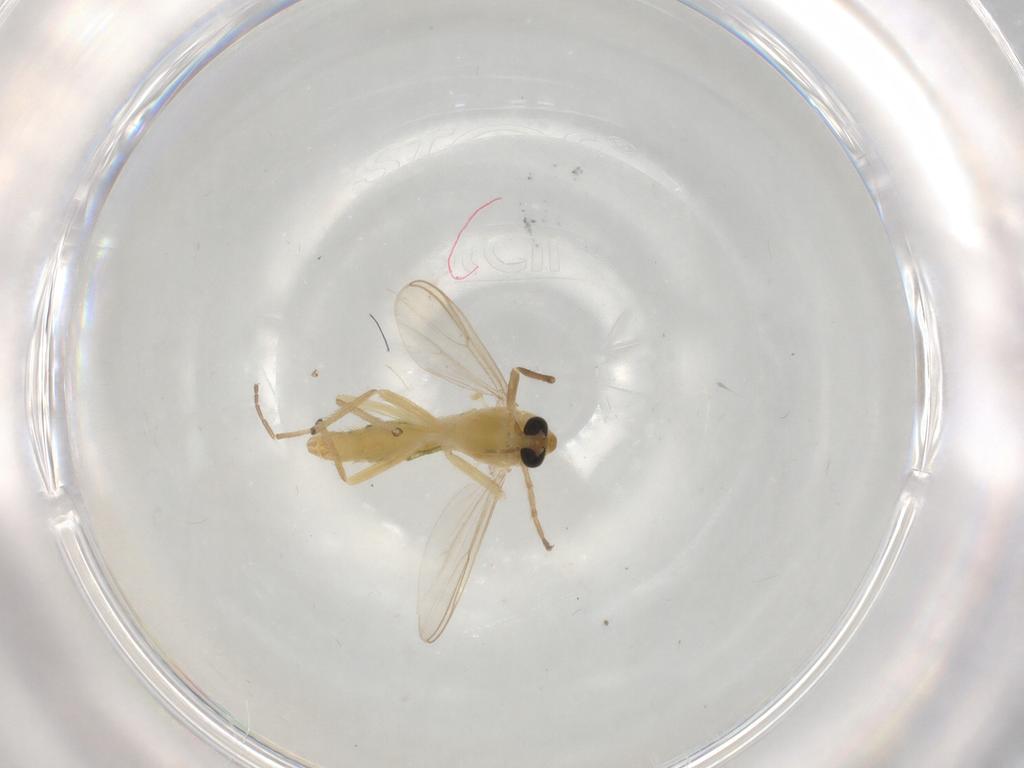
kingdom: Animalia
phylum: Arthropoda
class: Insecta
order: Diptera
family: Chironomidae
